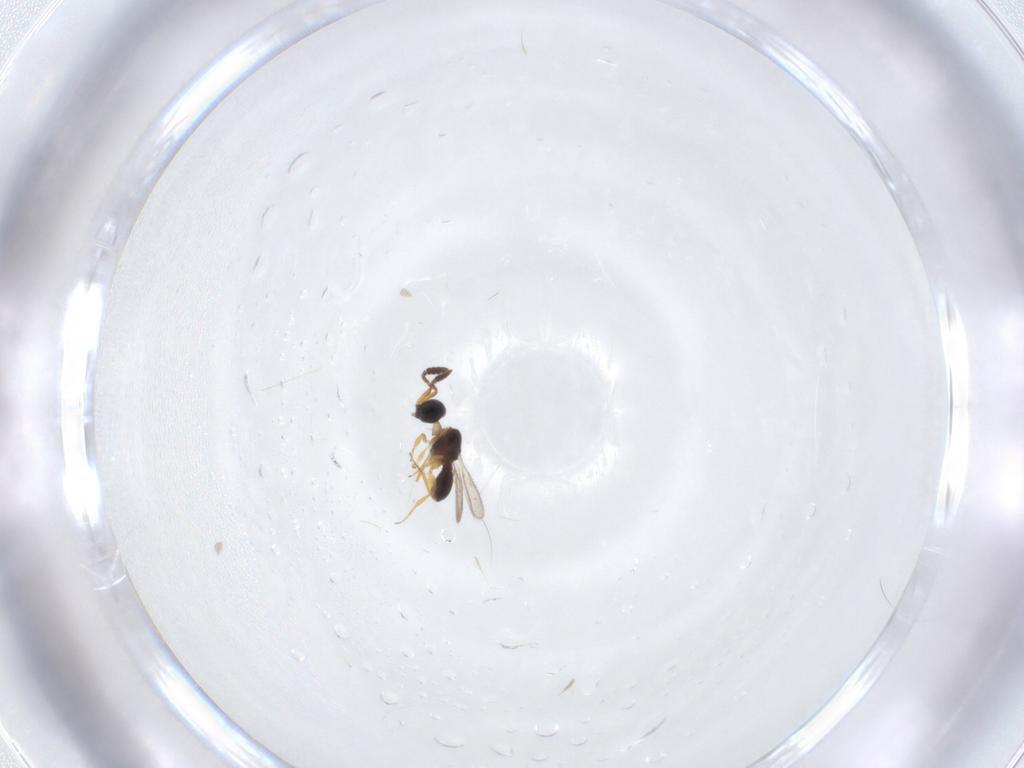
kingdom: Animalia
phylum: Arthropoda
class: Insecta
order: Hymenoptera
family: Scelionidae
